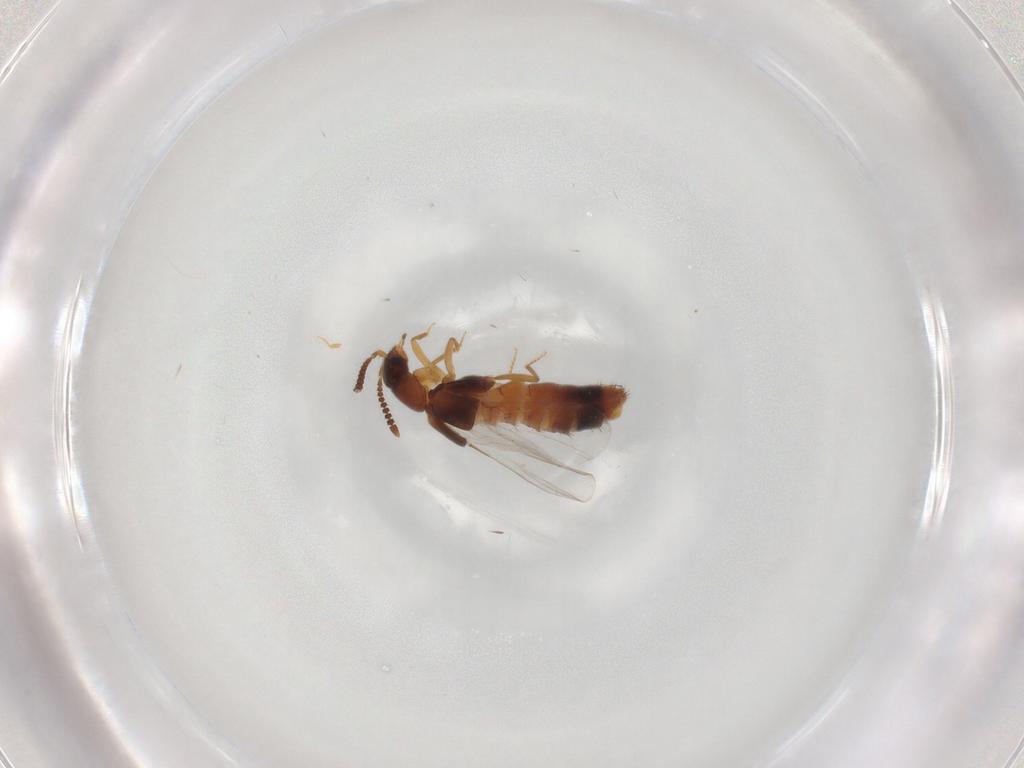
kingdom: Animalia
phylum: Arthropoda
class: Insecta
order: Coleoptera
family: Staphylinidae
